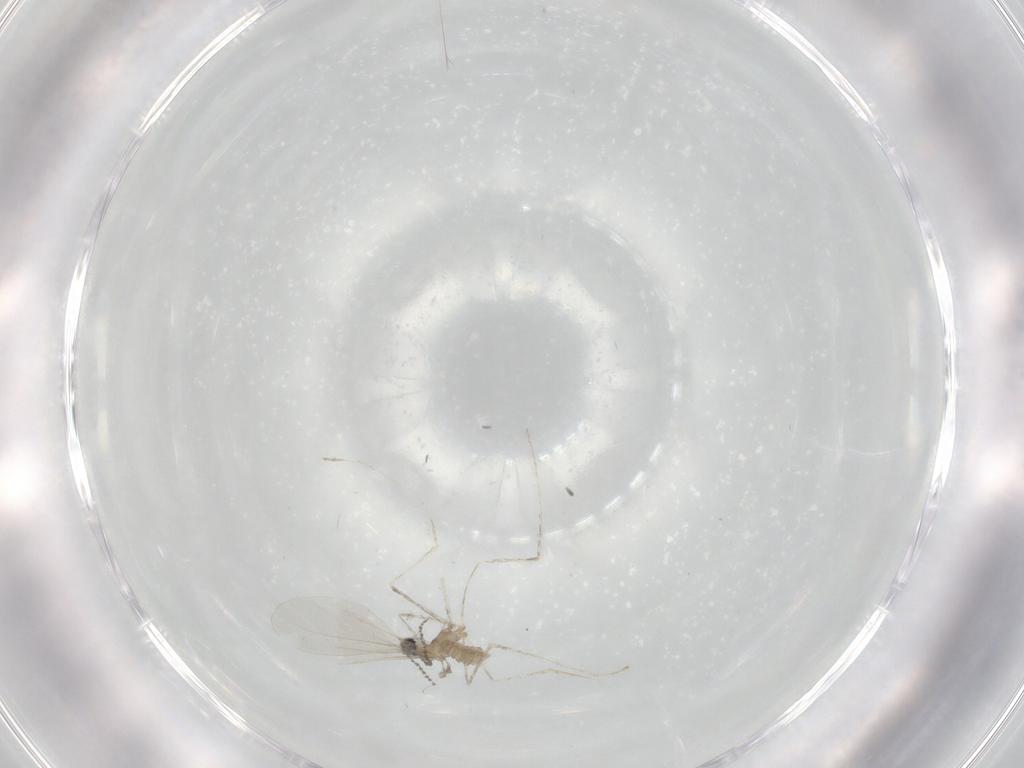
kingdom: Animalia
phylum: Arthropoda
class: Insecta
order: Diptera
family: Cecidomyiidae
